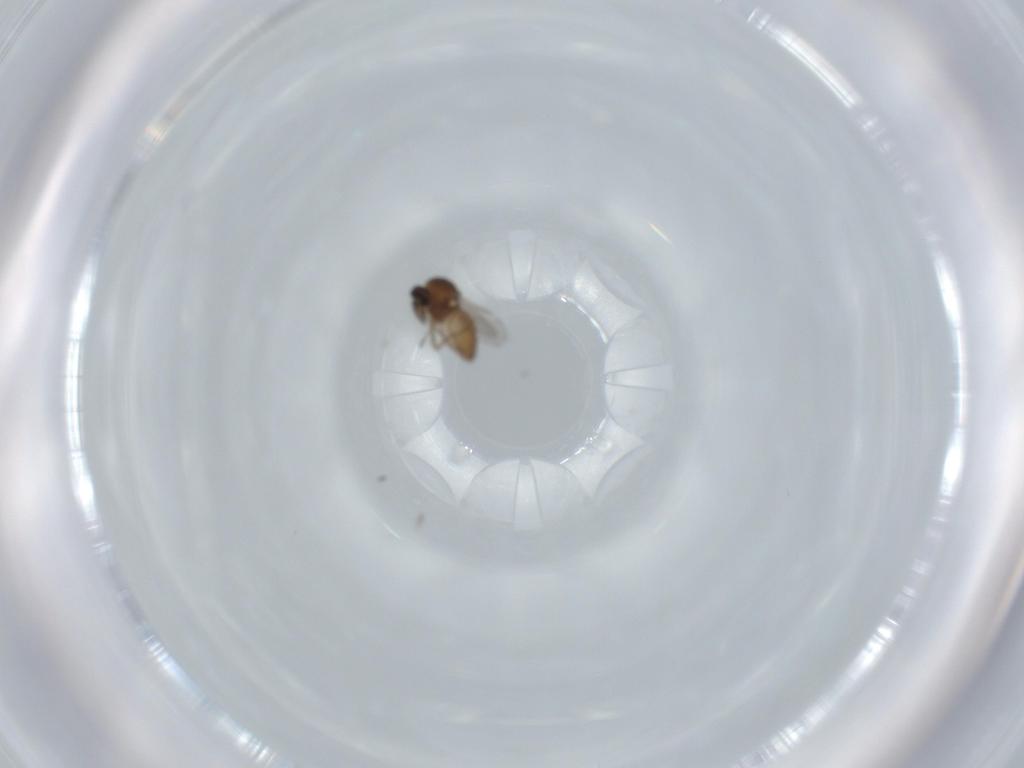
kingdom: Animalia
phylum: Arthropoda
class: Insecta
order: Diptera
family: Ceratopogonidae
